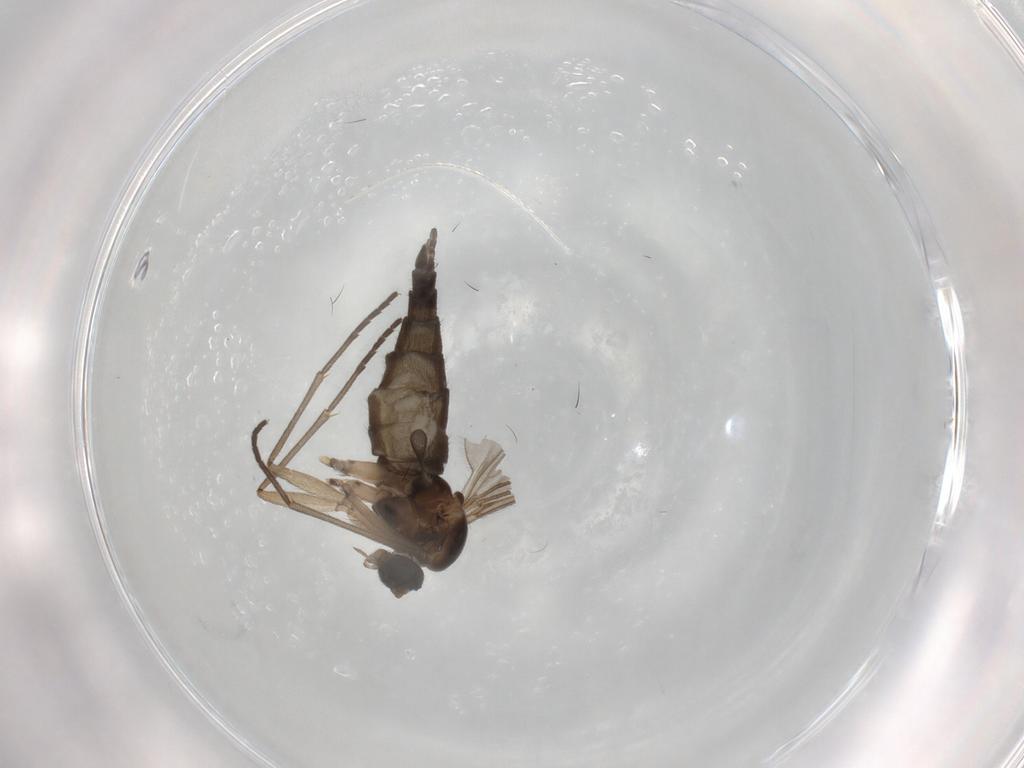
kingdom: Animalia
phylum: Arthropoda
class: Insecta
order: Diptera
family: Sciaridae
